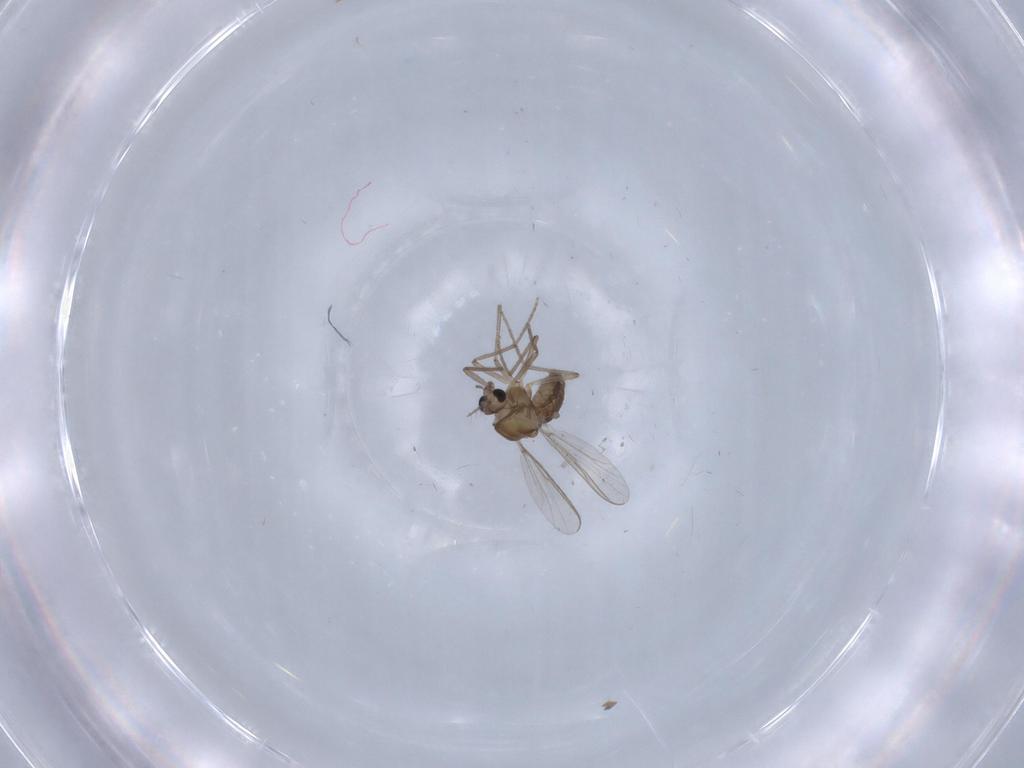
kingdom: Animalia
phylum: Arthropoda
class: Insecta
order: Diptera
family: Chironomidae
